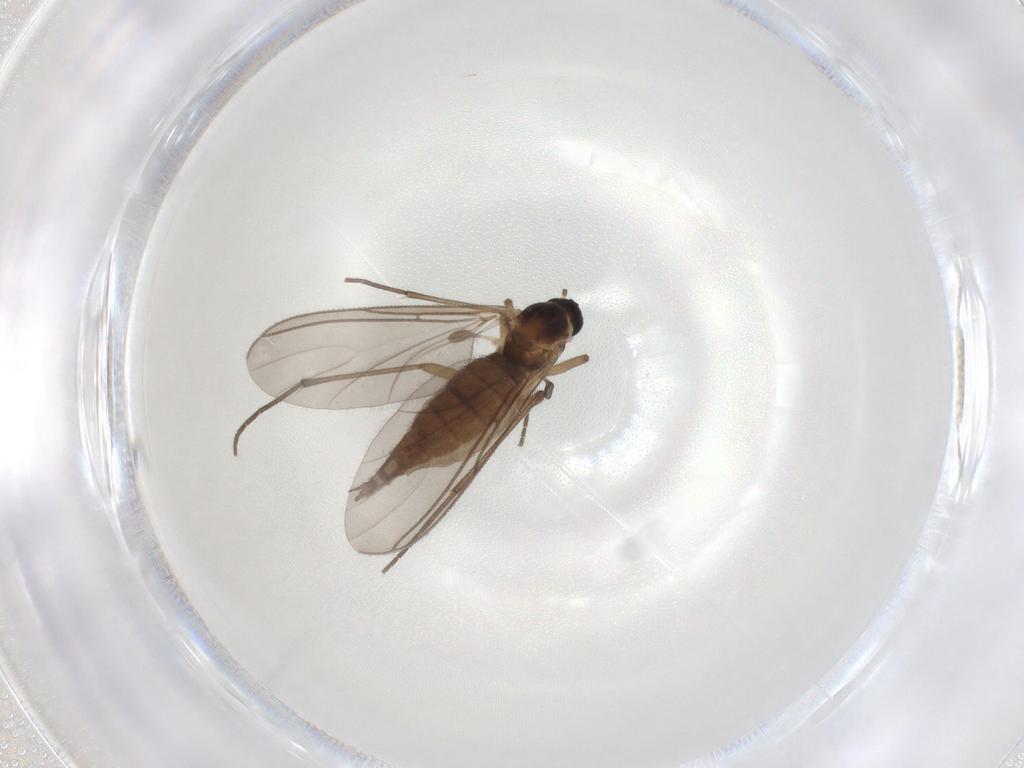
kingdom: Animalia
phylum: Arthropoda
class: Insecta
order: Diptera
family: Sciaridae
